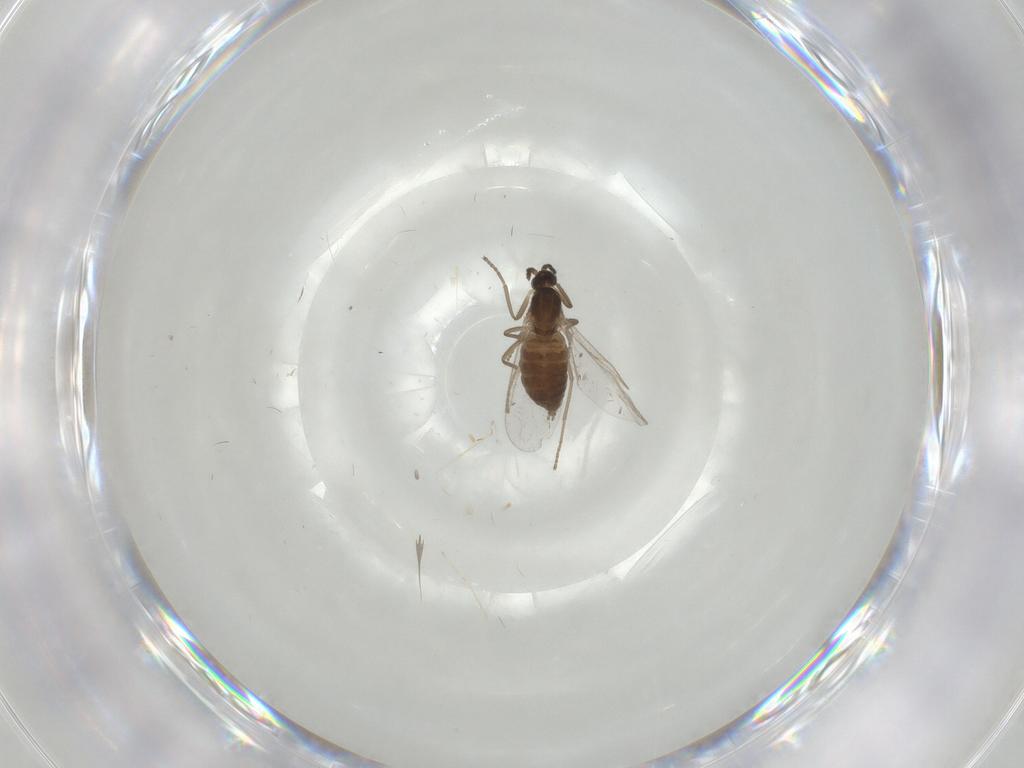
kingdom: Animalia
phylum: Arthropoda
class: Insecta
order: Diptera
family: Cecidomyiidae
